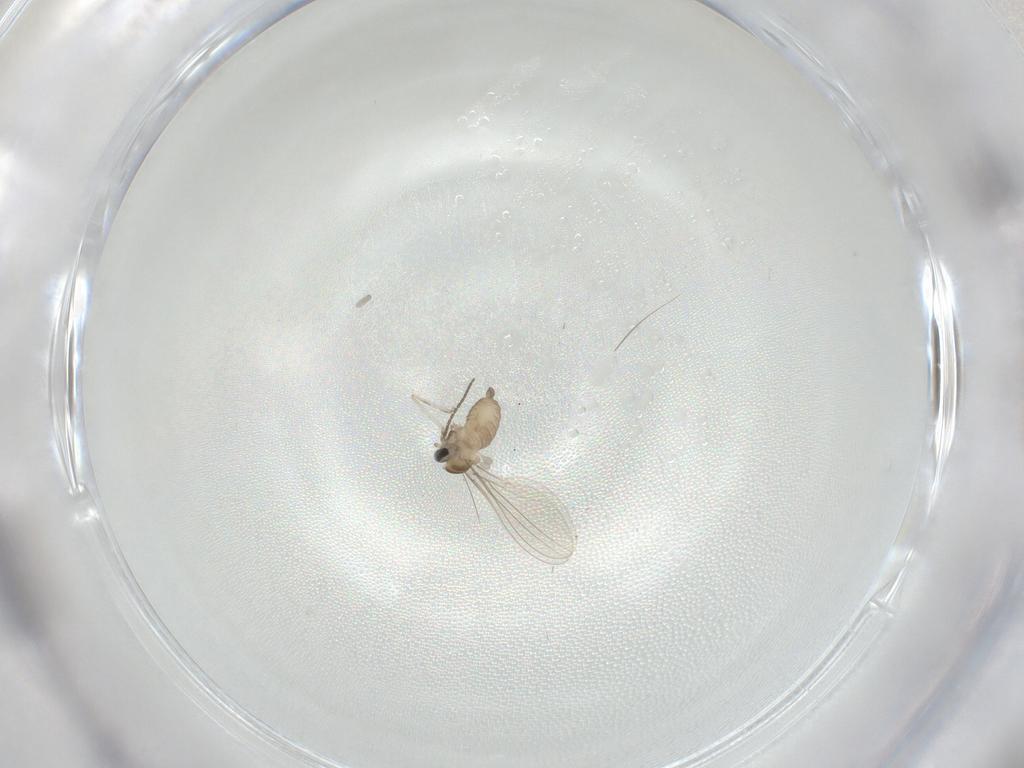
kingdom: Animalia
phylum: Arthropoda
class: Insecta
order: Diptera
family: Cecidomyiidae
